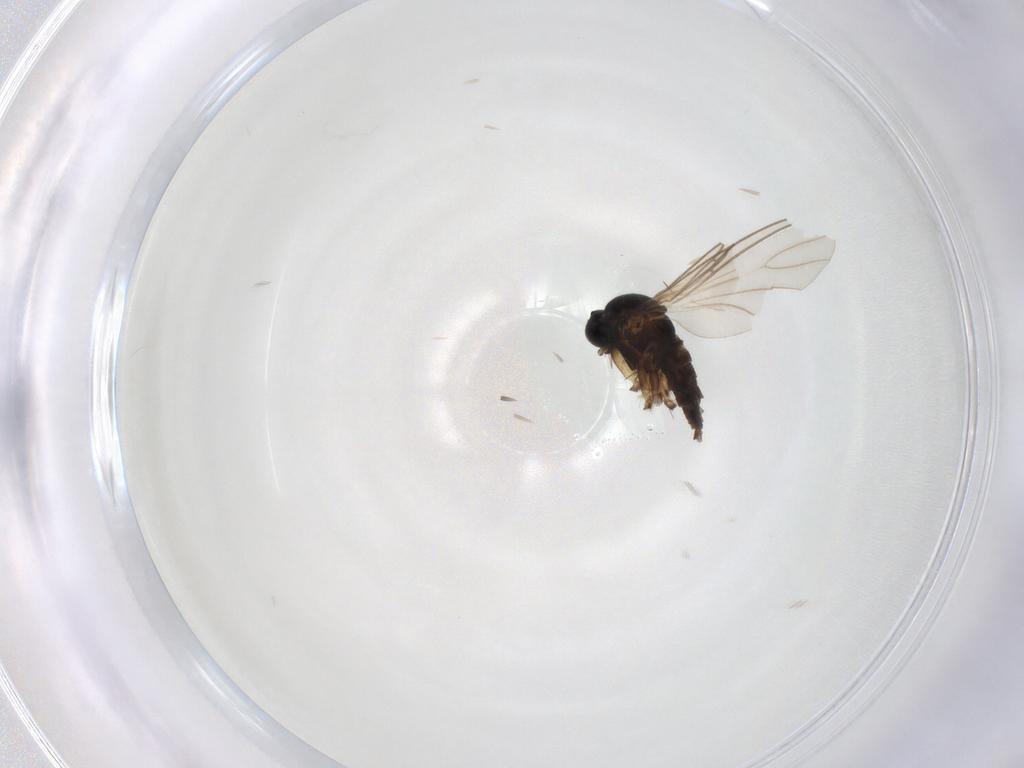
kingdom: Animalia
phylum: Arthropoda
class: Insecta
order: Diptera
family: Sciaridae
